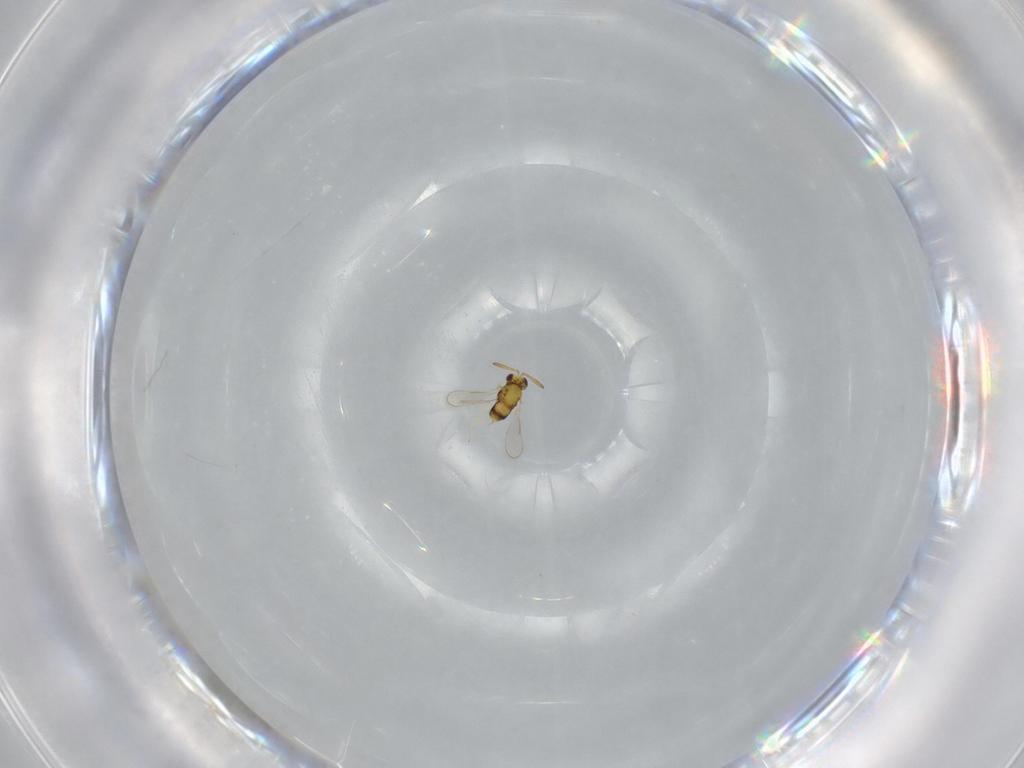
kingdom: Animalia
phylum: Arthropoda
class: Insecta
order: Hymenoptera
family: Aphelinidae
